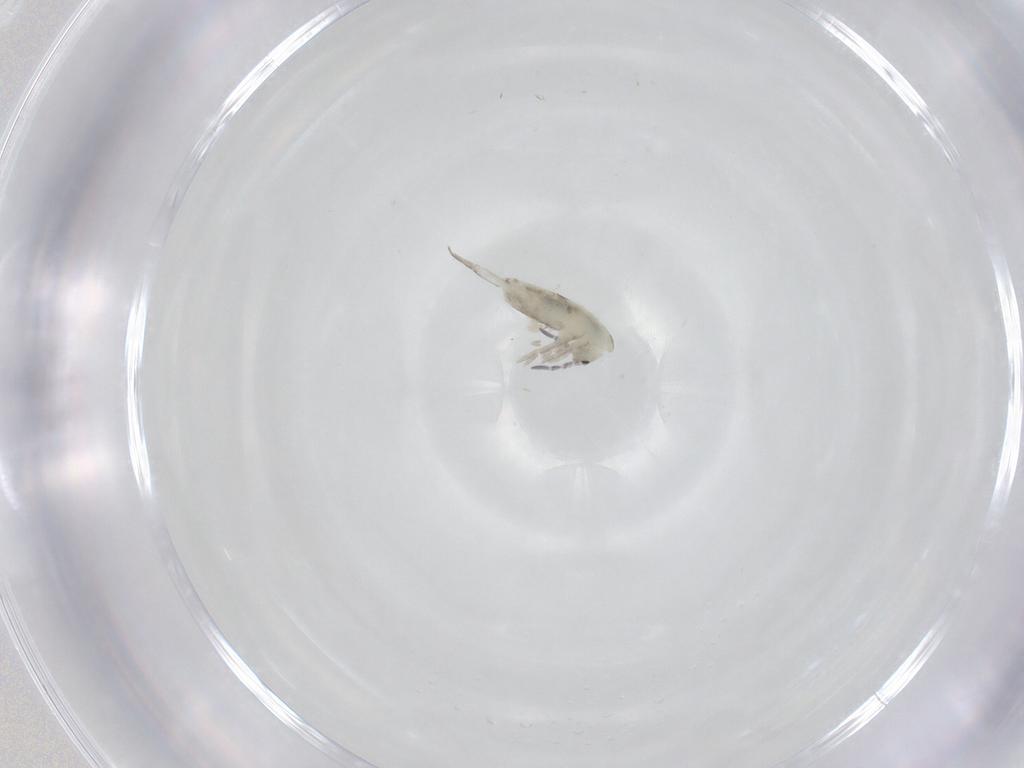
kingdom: Animalia
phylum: Arthropoda
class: Collembola
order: Entomobryomorpha
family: Entomobryidae
